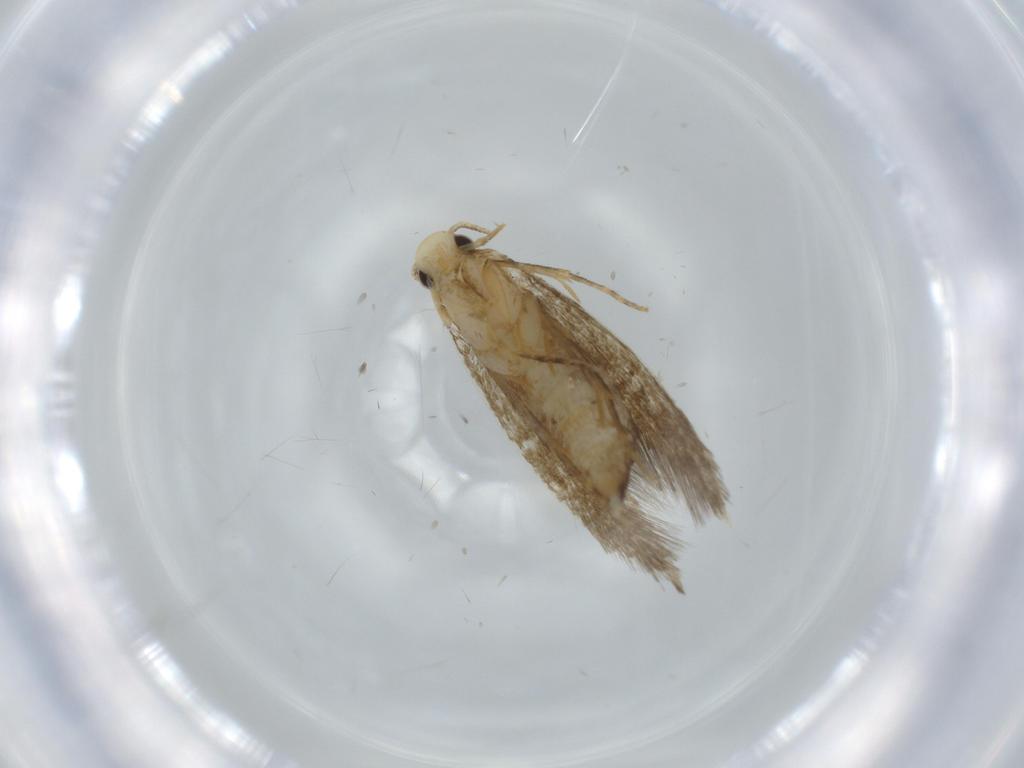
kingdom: Animalia
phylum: Arthropoda
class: Insecta
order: Lepidoptera
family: Tineidae
